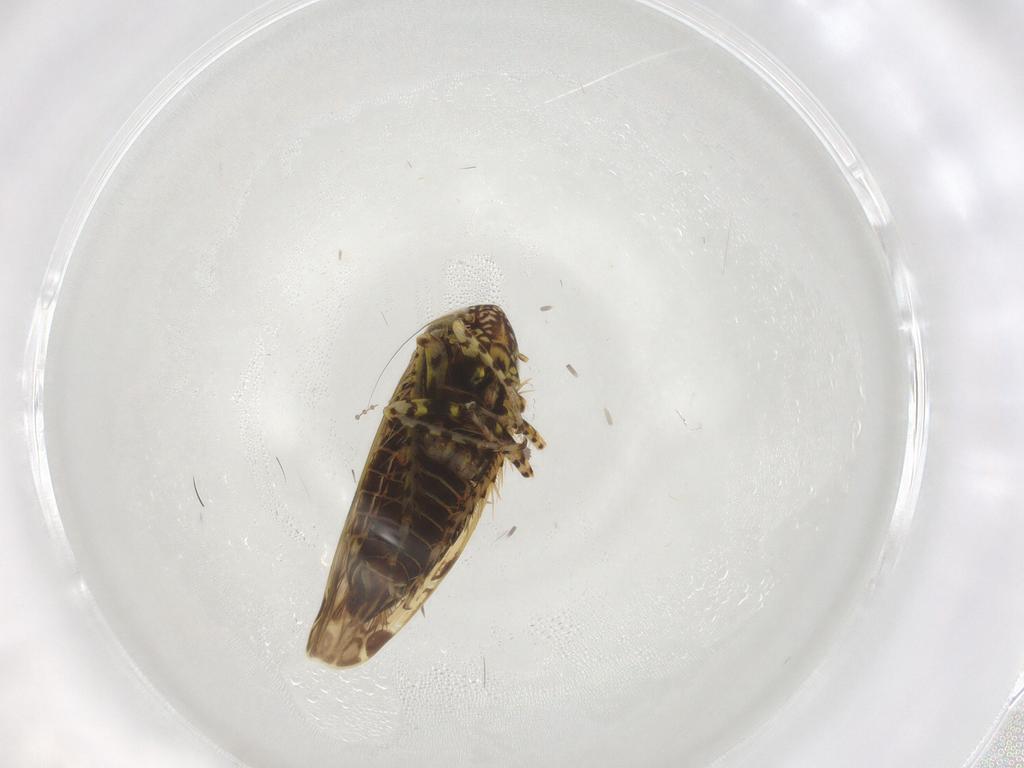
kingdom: Animalia
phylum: Arthropoda
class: Insecta
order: Hemiptera
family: Cicadellidae
